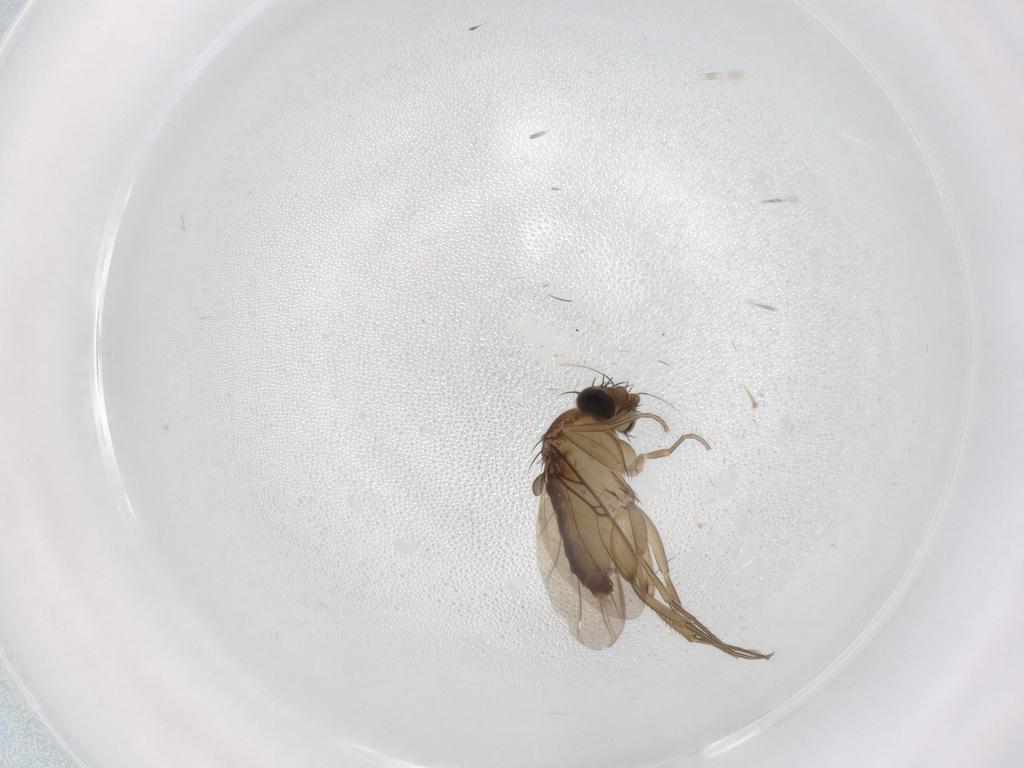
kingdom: Animalia
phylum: Arthropoda
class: Insecta
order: Diptera
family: Phoridae
